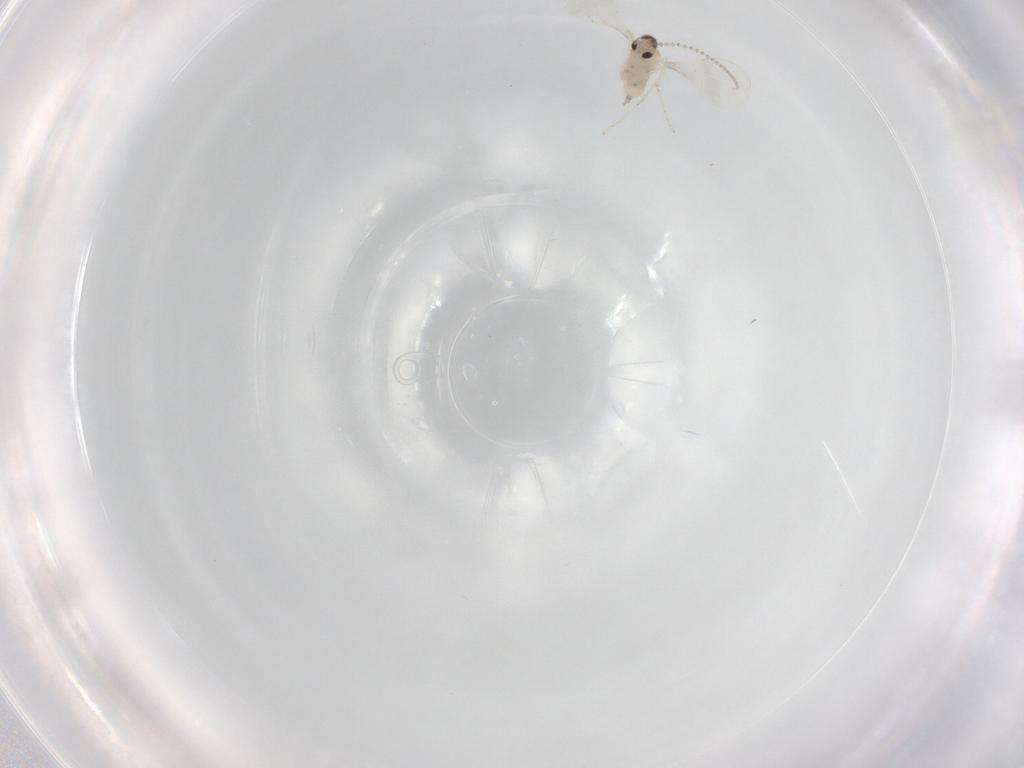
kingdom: Animalia
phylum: Arthropoda
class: Insecta
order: Diptera
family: Cecidomyiidae
